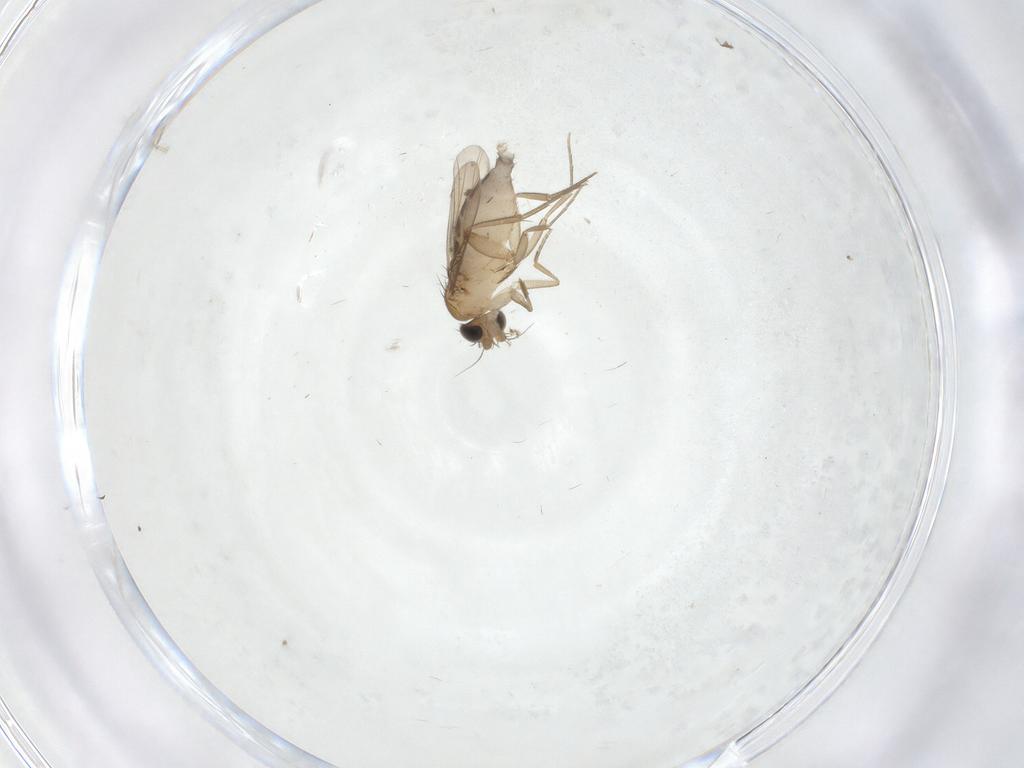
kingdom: Animalia
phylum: Arthropoda
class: Insecta
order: Diptera
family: Phoridae
